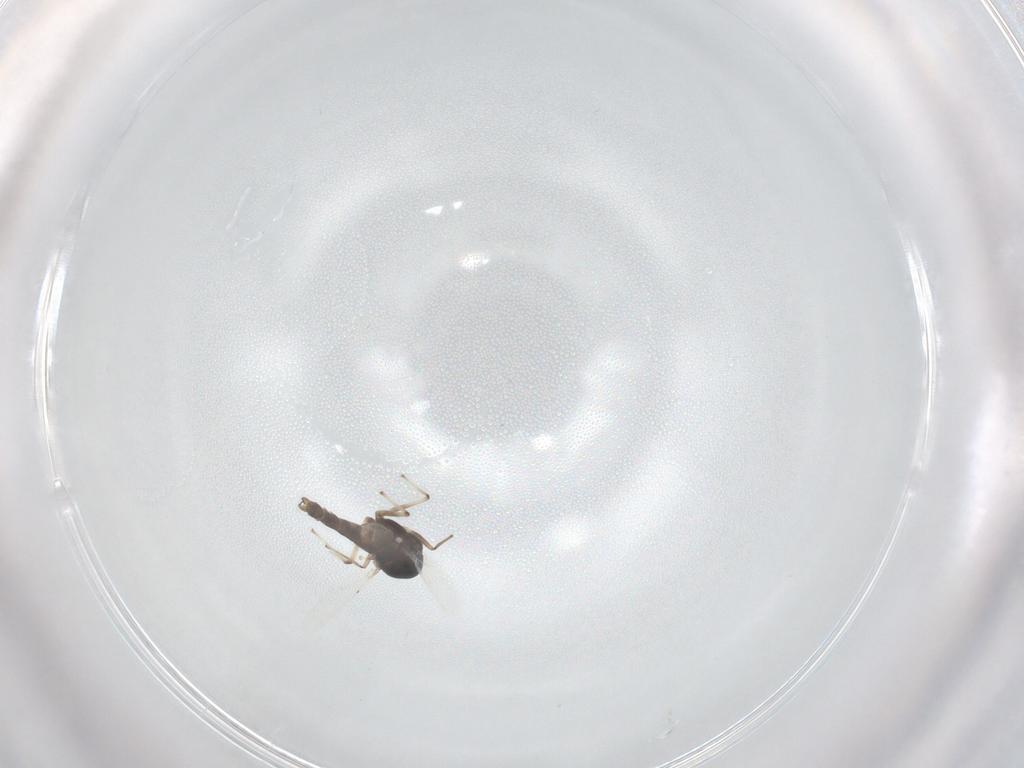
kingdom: Animalia
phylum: Arthropoda
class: Insecta
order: Diptera
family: Chironomidae
